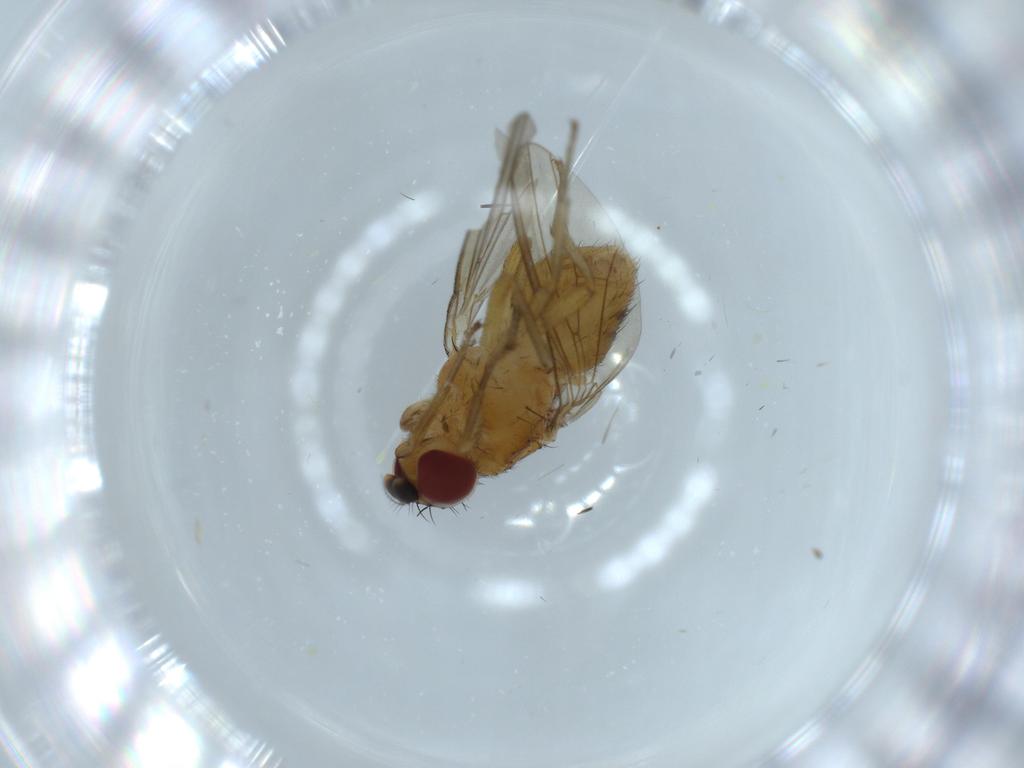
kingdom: Animalia
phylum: Arthropoda
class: Insecta
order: Diptera
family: Lauxaniidae
